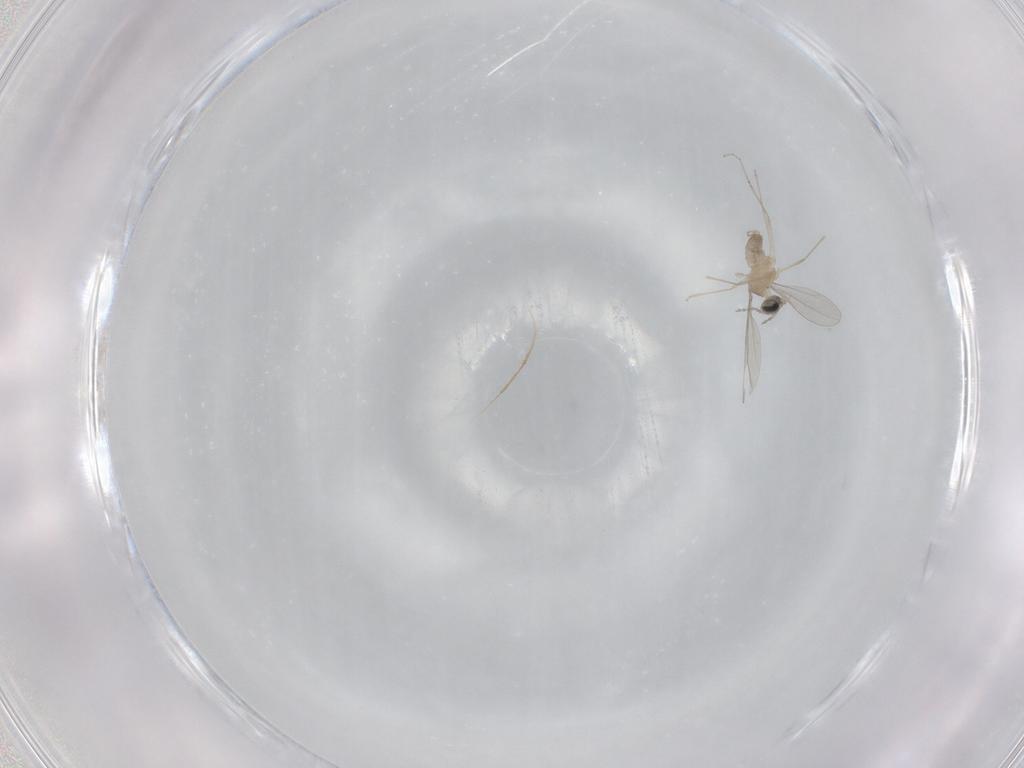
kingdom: Animalia
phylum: Arthropoda
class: Insecta
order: Diptera
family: Cecidomyiidae
